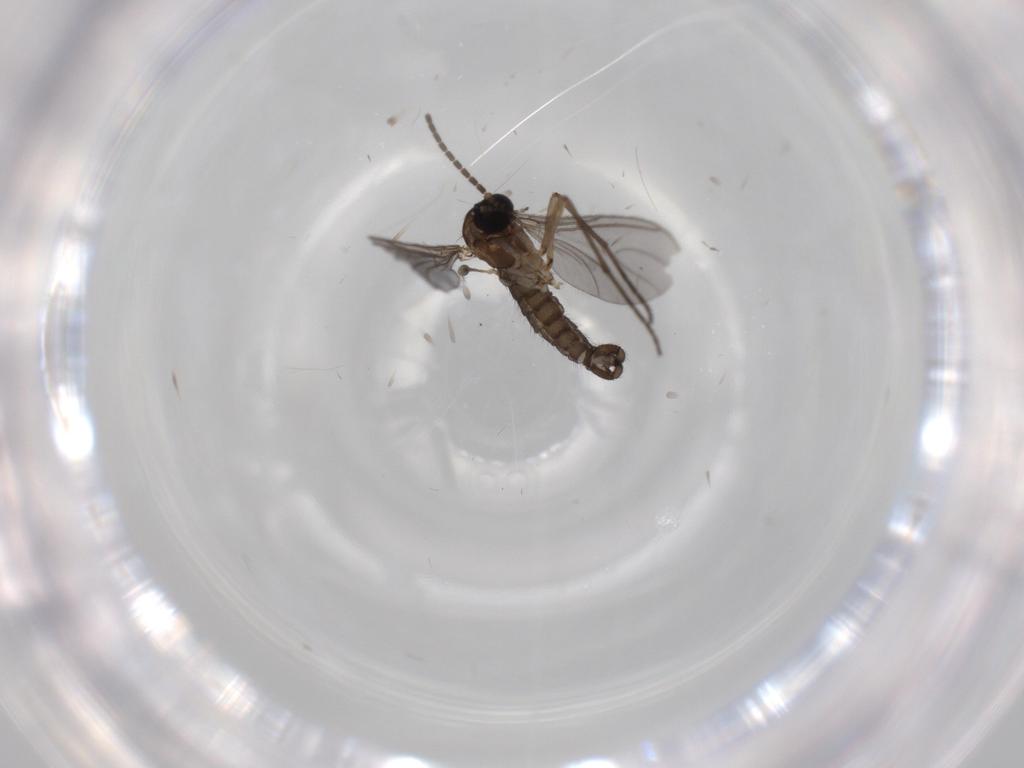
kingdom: Animalia
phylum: Arthropoda
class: Insecta
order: Diptera
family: Sciaridae
